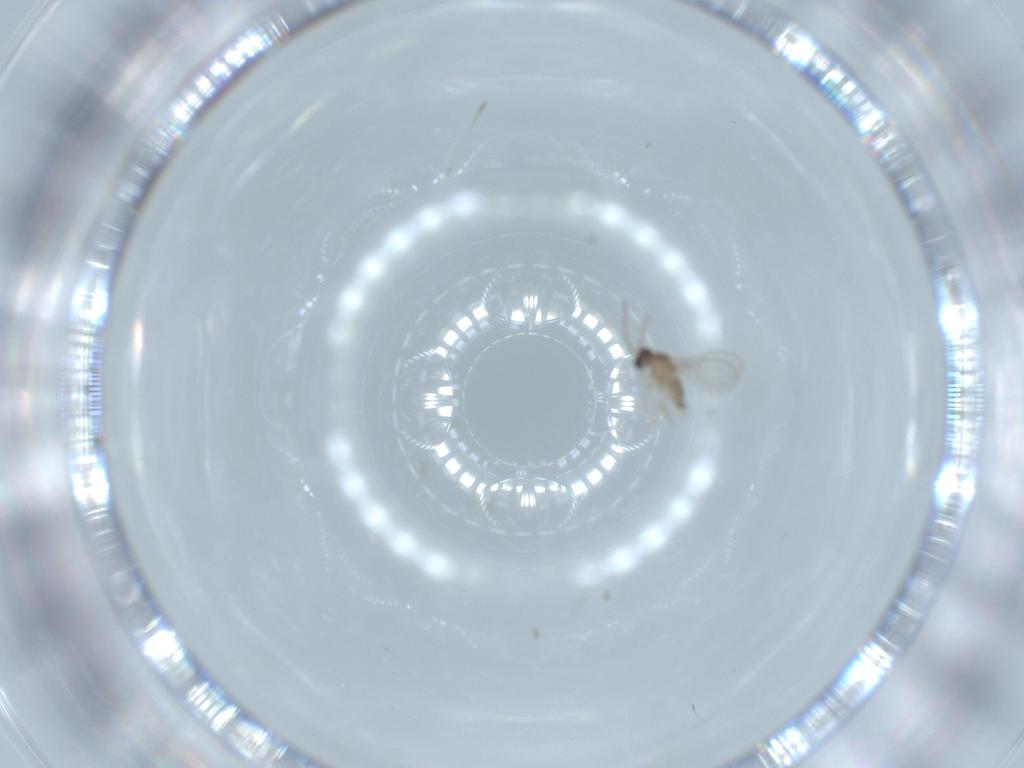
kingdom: Animalia
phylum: Arthropoda
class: Insecta
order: Diptera
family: Cecidomyiidae
